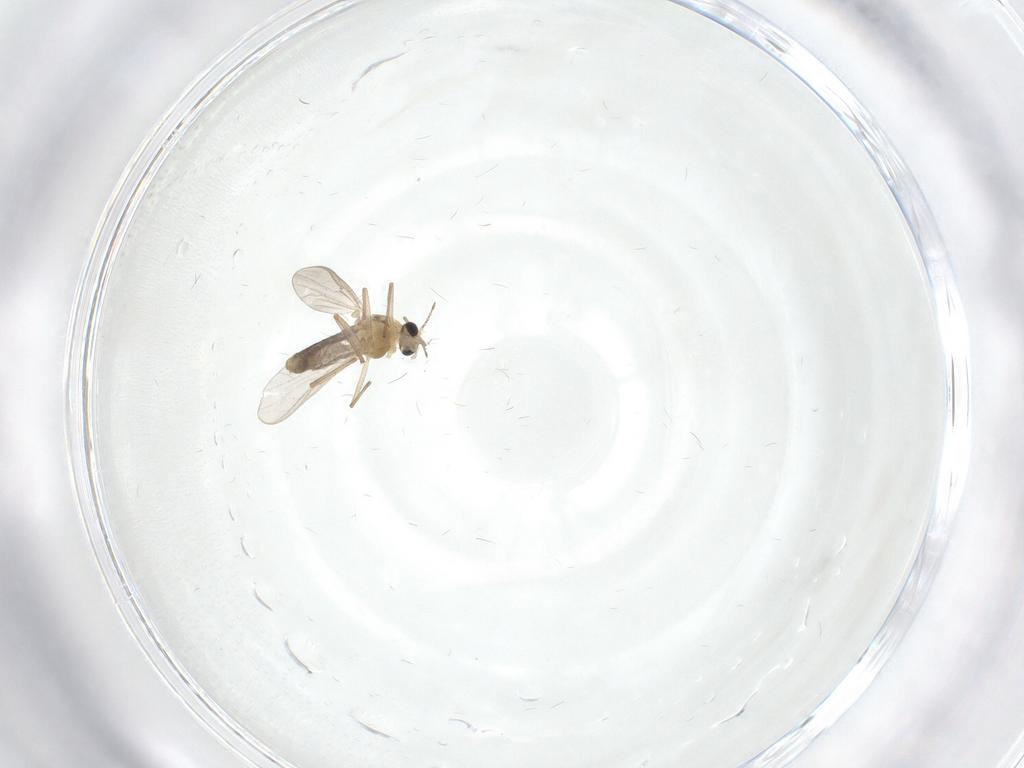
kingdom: Animalia
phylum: Arthropoda
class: Insecta
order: Diptera
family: Chironomidae
